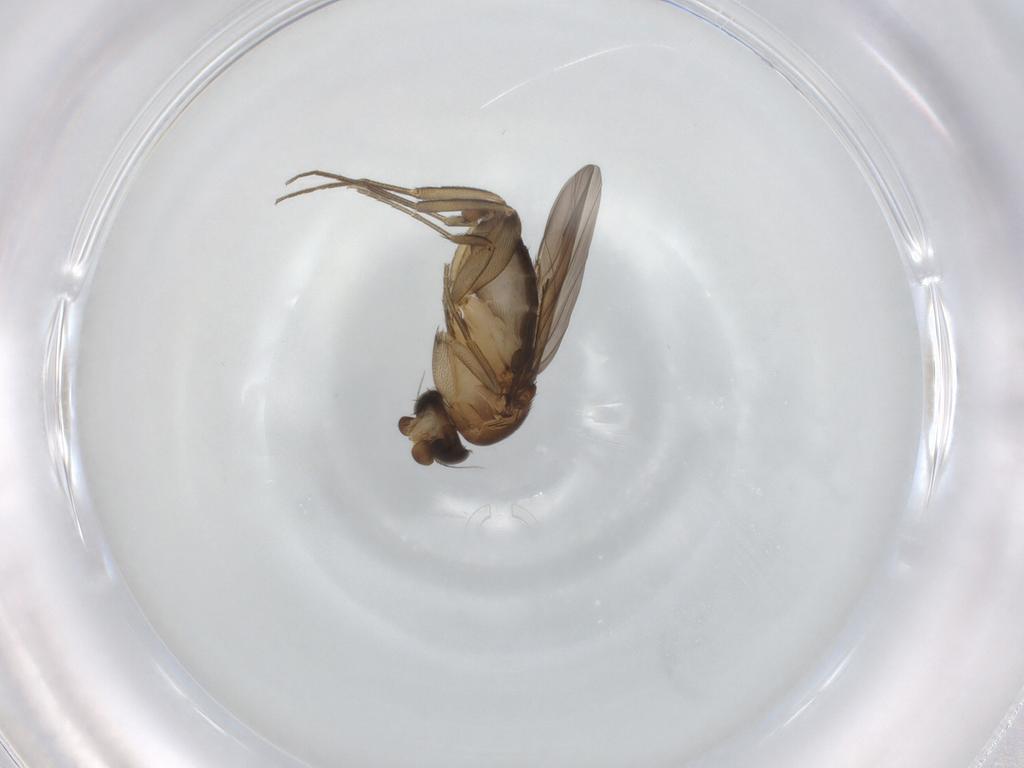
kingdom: Animalia
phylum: Arthropoda
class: Insecta
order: Diptera
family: Phoridae
